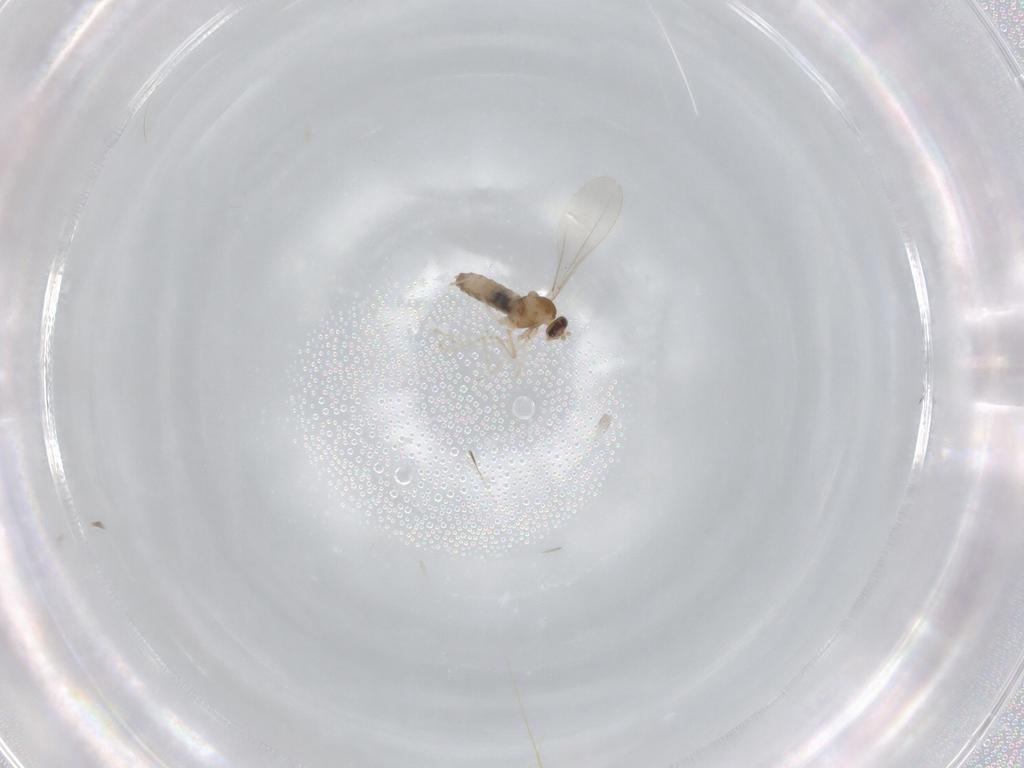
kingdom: Animalia
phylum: Arthropoda
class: Insecta
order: Diptera
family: Cecidomyiidae
